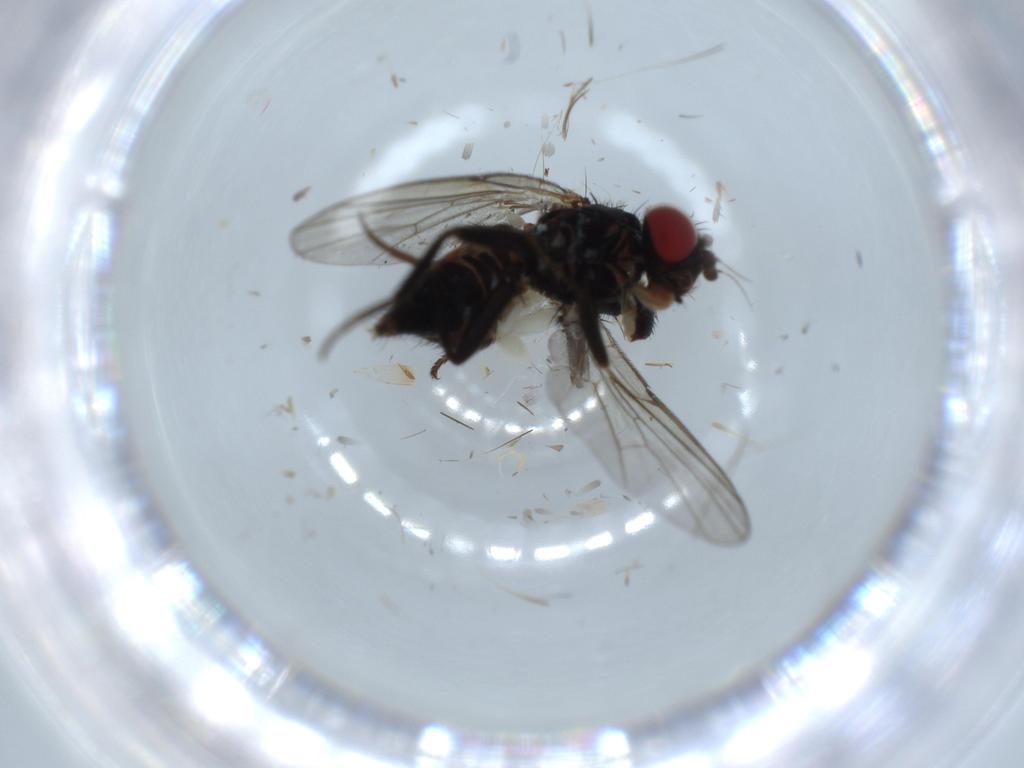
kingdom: Animalia
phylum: Arthropoda
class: Insecta
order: Diptera
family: Agromyzidae
